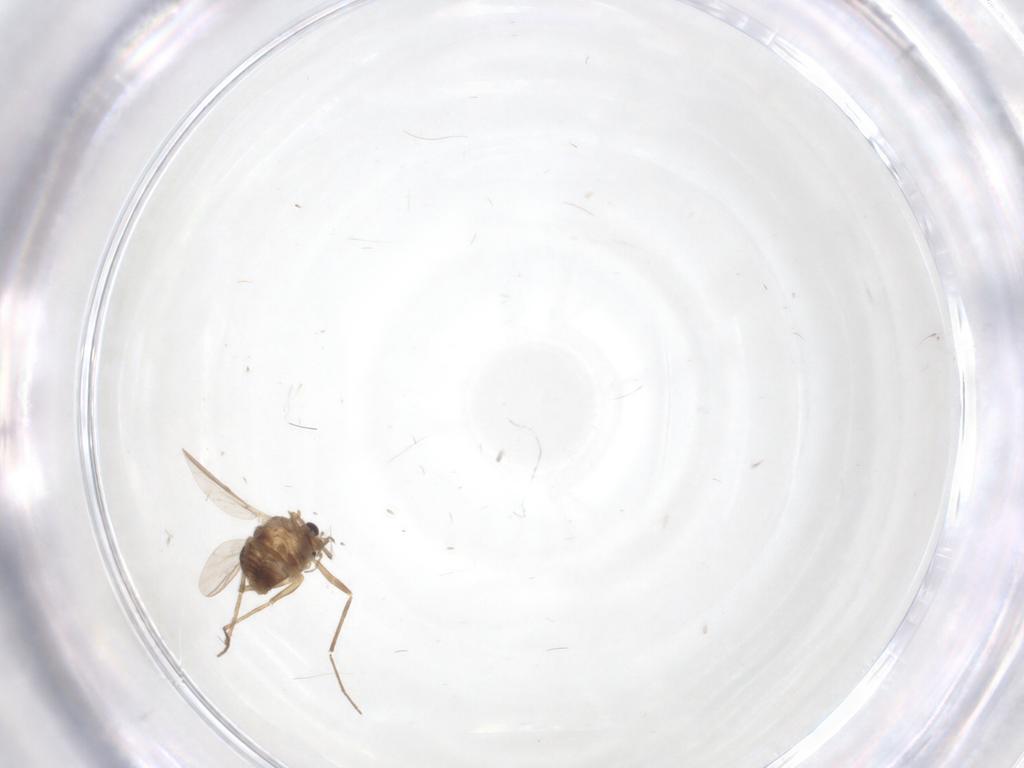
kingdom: Animalia
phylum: Arthropoda
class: Insecta
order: Diptera
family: Chironomidae
